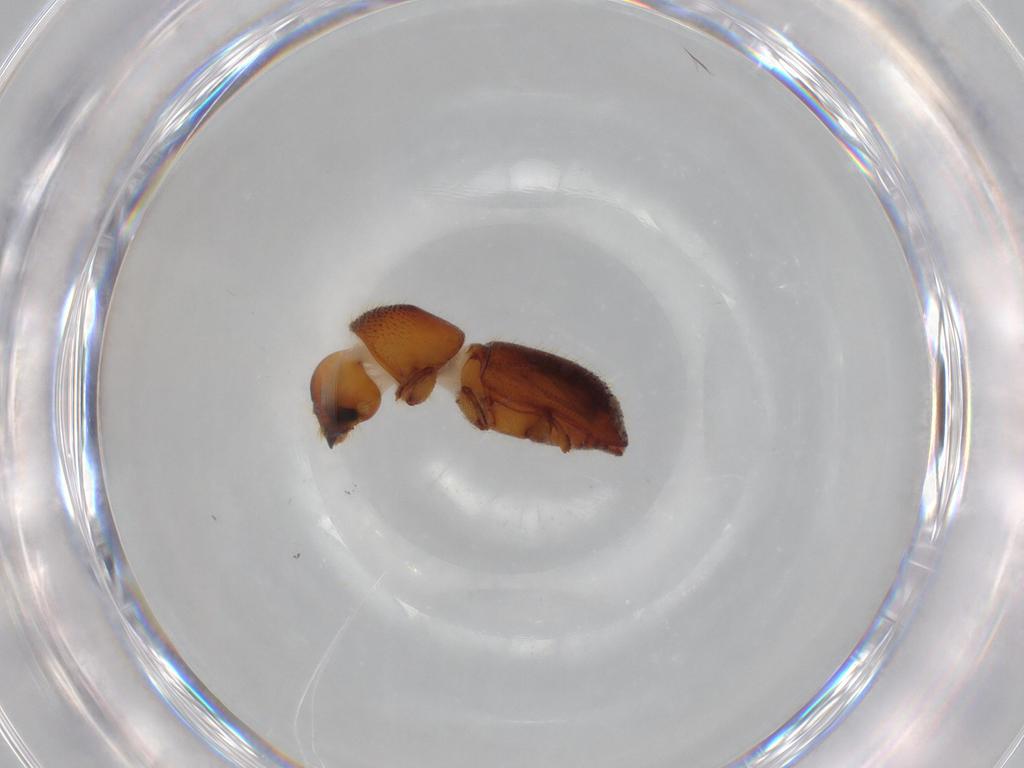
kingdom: Animalia
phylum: Arthropoda
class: Insecta
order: Coleoptera
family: Curculionidae
